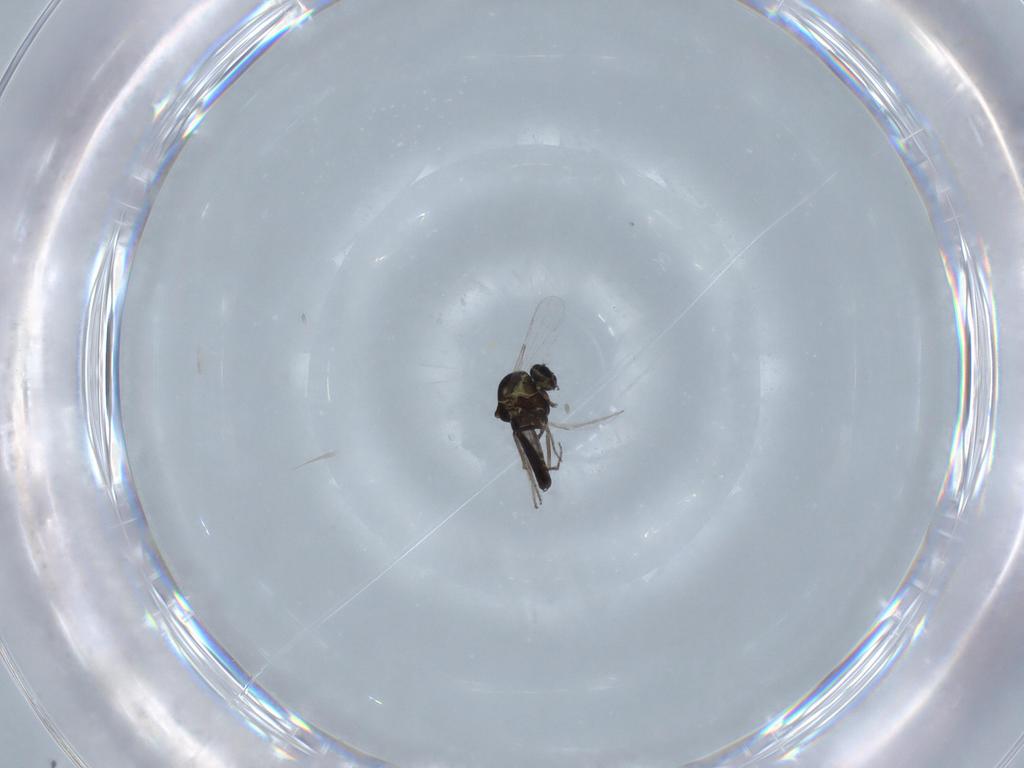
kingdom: Animalia
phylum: Arthropoda
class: Insecta
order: Diptera
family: Ceratopogonidae
